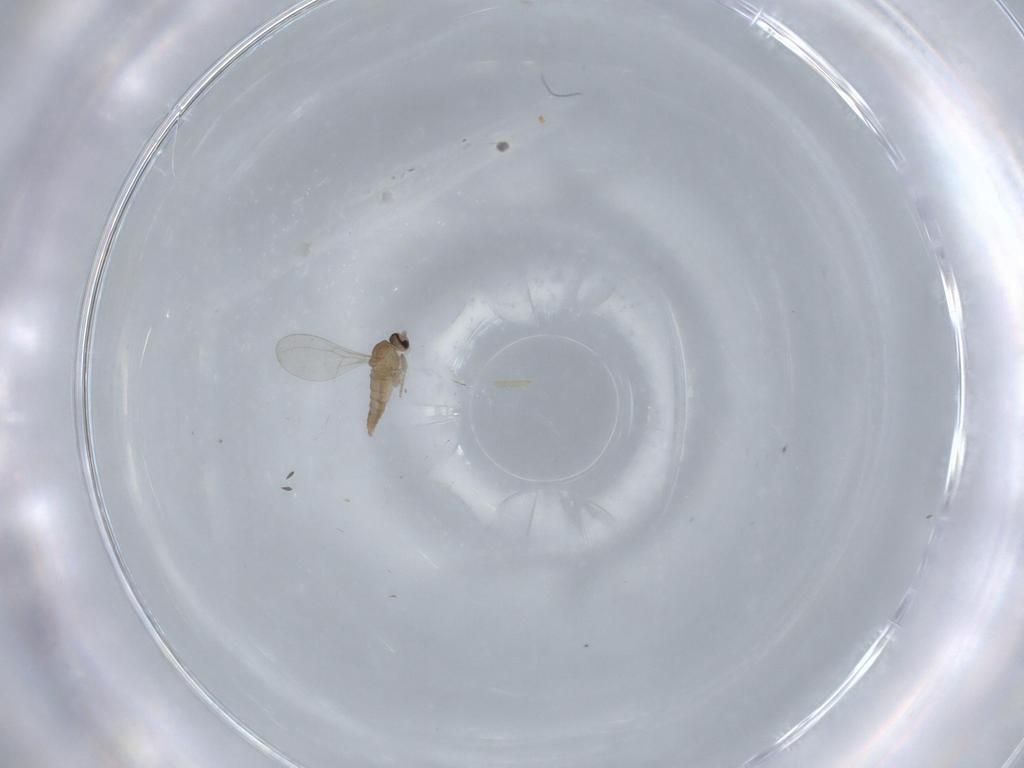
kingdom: Animalia
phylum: Arthropoda
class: Insecta
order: Diptera
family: Cecidomyiidae
